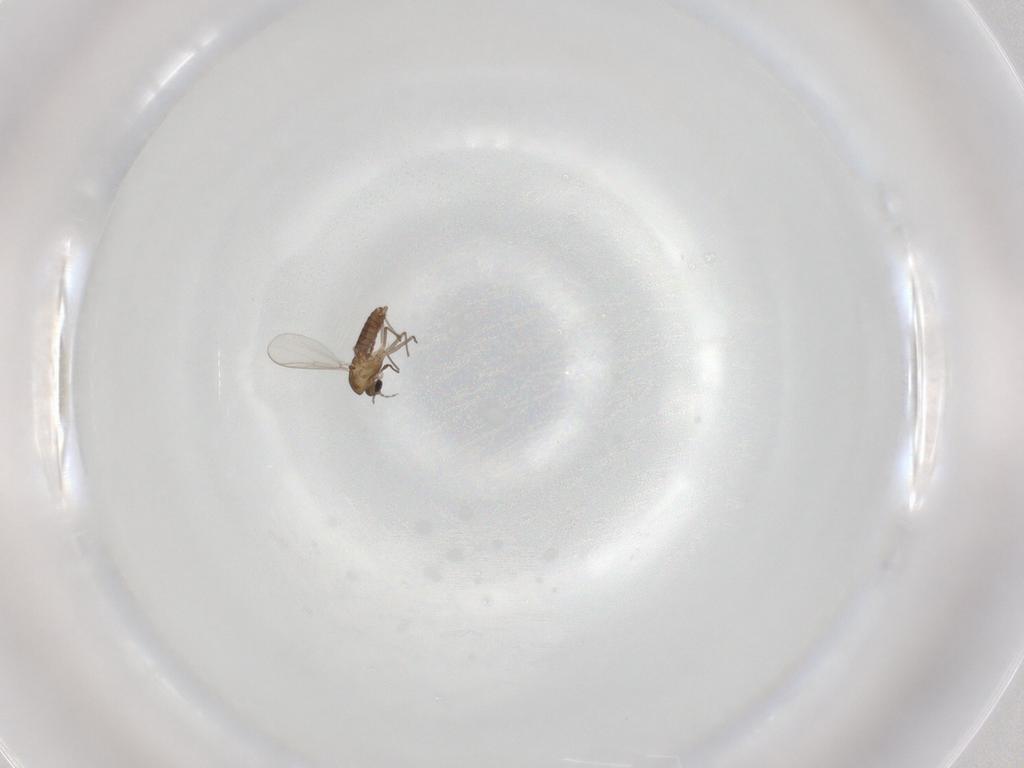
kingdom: Animalia
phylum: Arthropoda
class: Insecta
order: Diptera
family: Chironomidae
